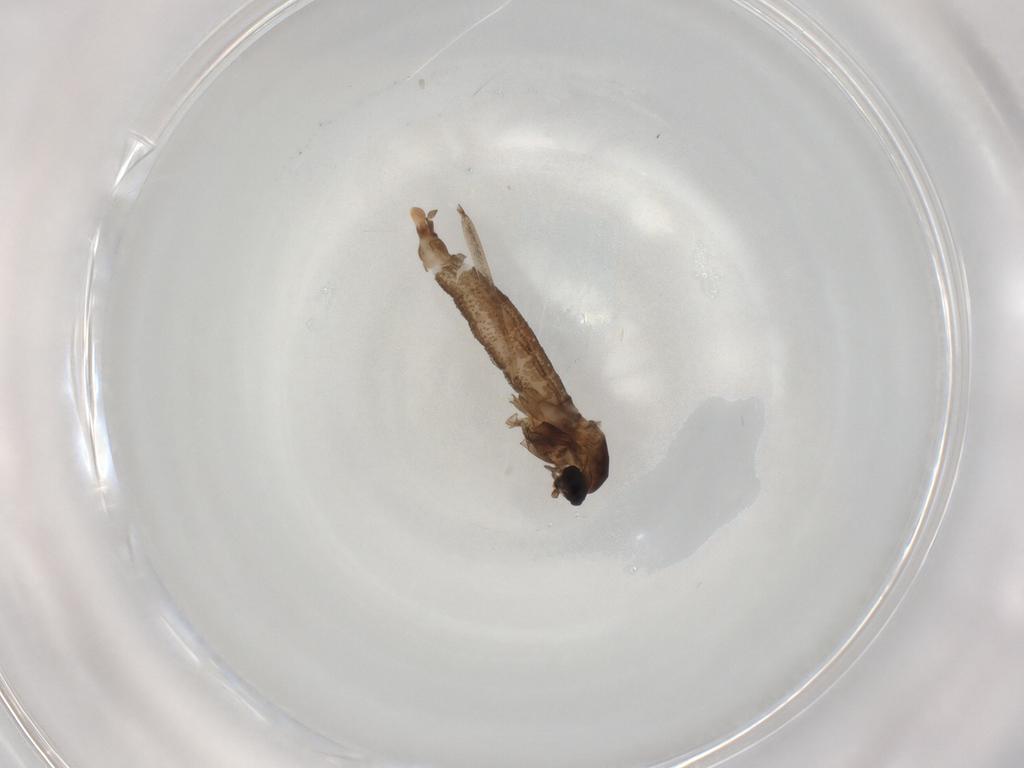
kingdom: Animalia
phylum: Arthropoda
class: Insecta
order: Diptera
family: Cecidomyiidae
